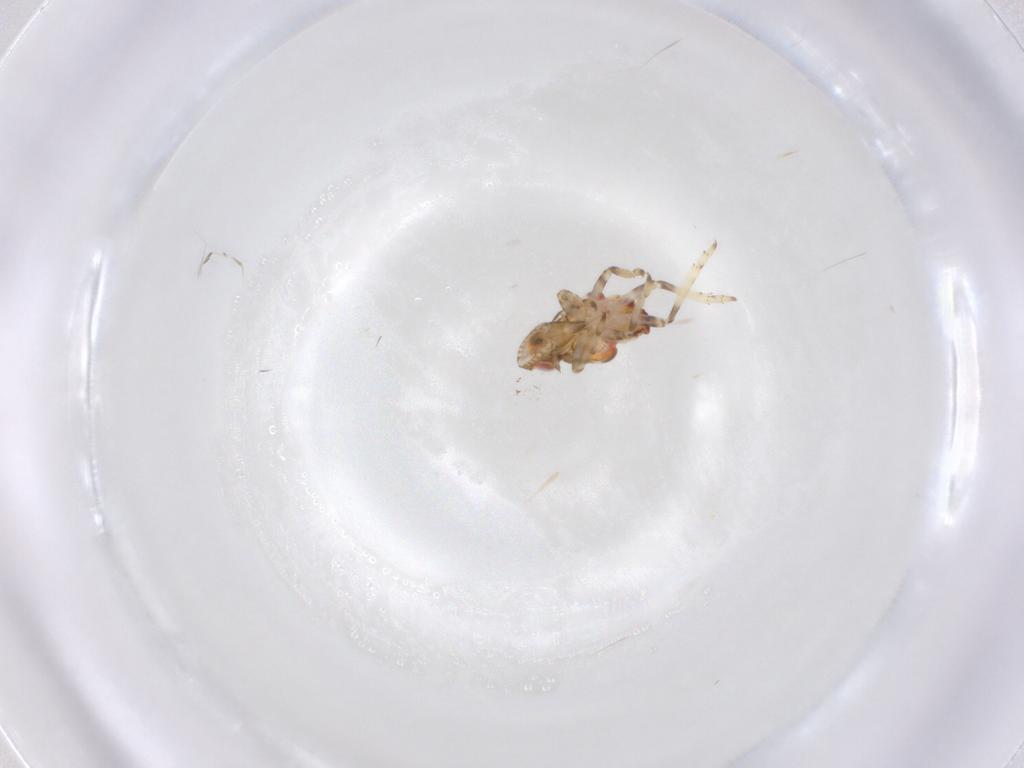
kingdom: Animalia
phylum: Arthropoda
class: Insecta
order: Hemiptera
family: Tropiduchidae
